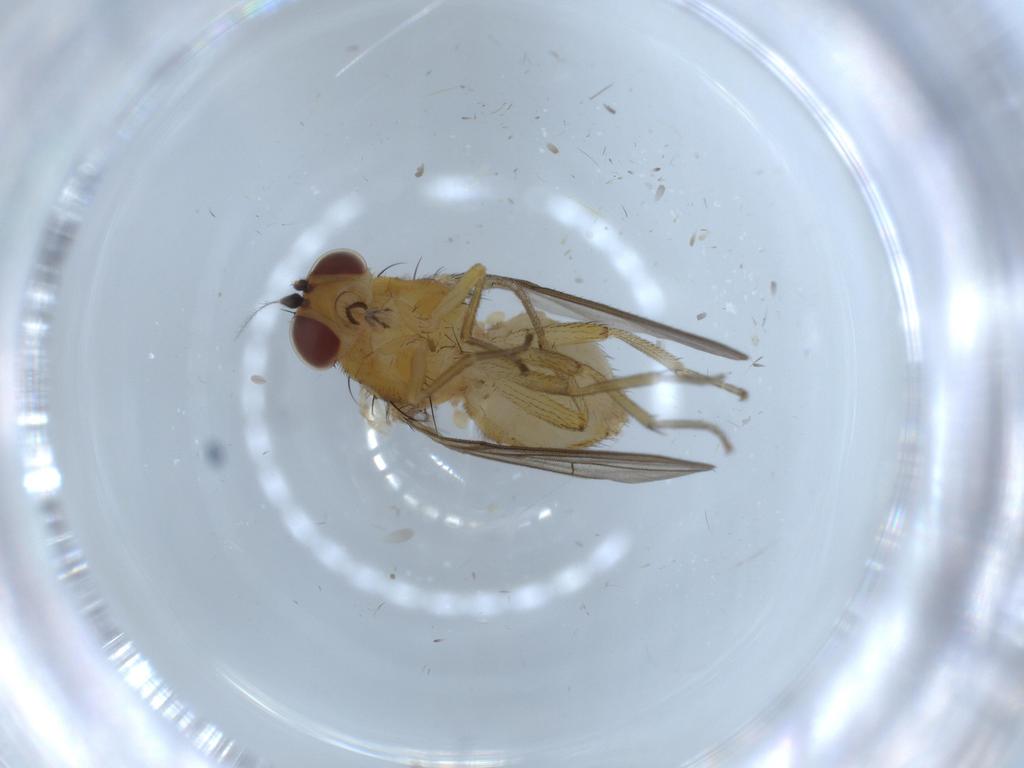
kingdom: Animalia
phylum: Arthropoda
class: Insecta
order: Diptera
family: Lauxaniidae
